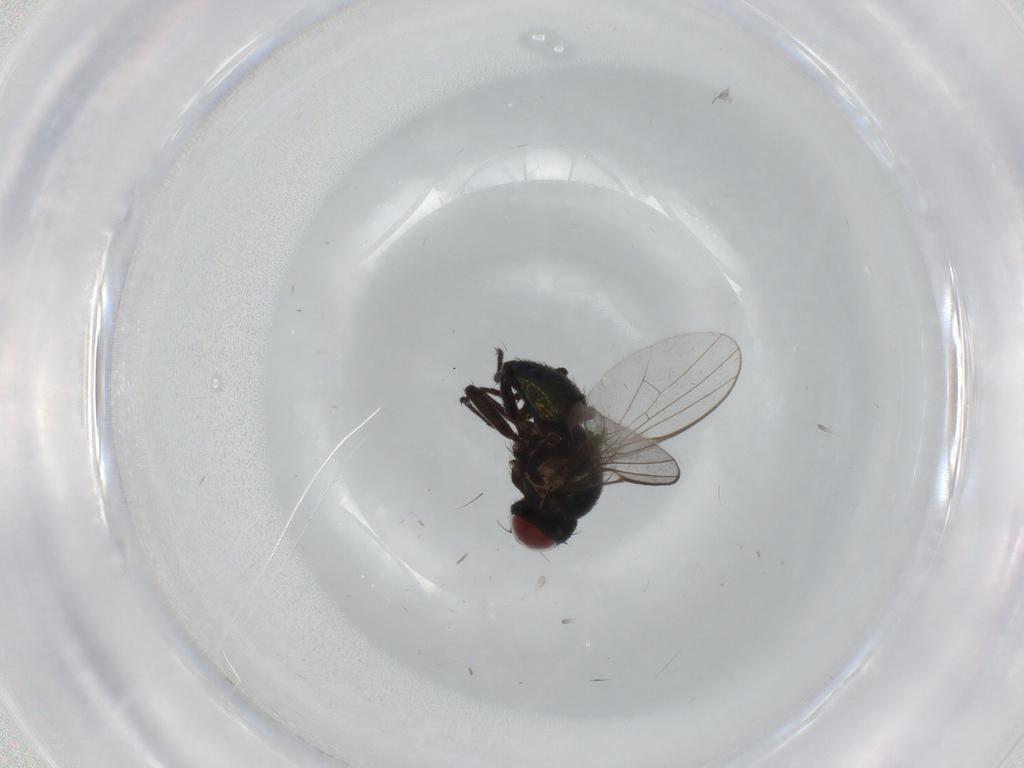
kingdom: Animalia
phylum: Arthropoda
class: Insecta
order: Diptera
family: Agromyzidae
